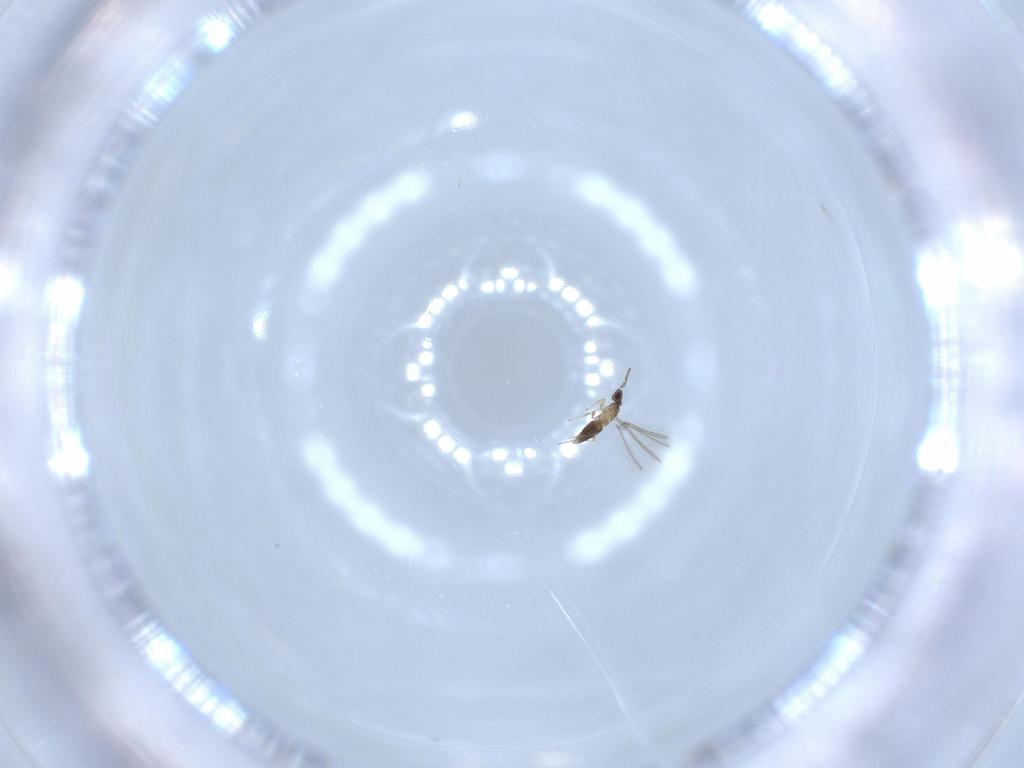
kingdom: Animalia
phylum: Arthropoda
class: Insecta
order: Hymenoptera
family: Mymaridae
